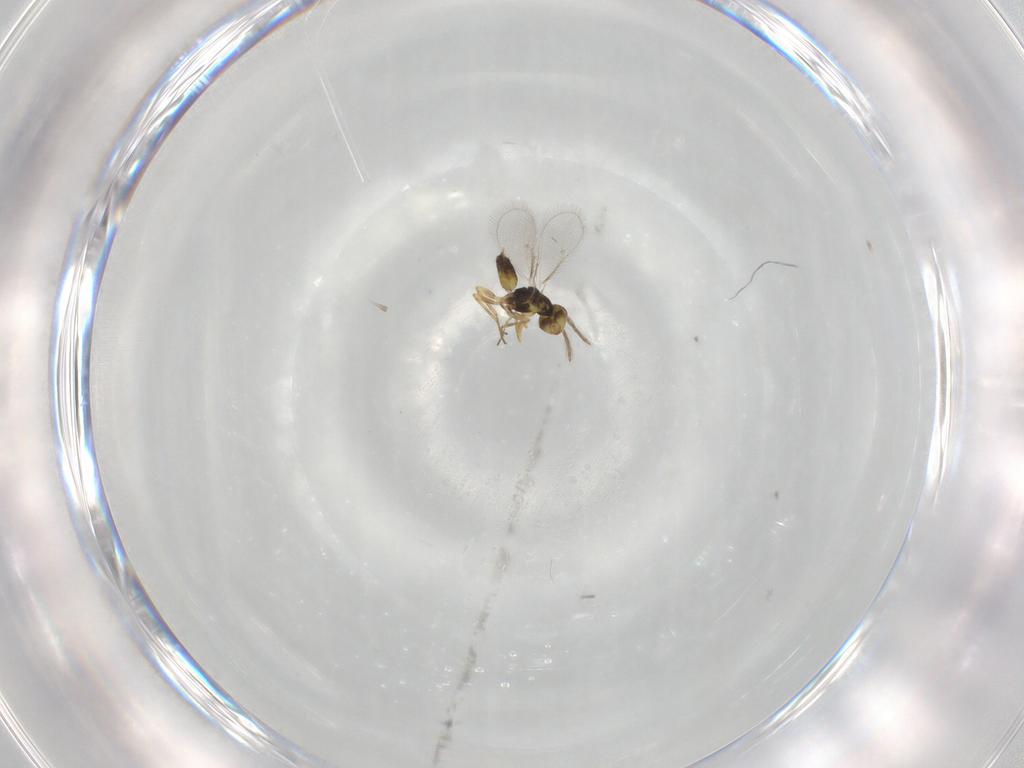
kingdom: Animalia
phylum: Arthropoda
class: Insecta
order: Hymenoptera
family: Eulophidae
